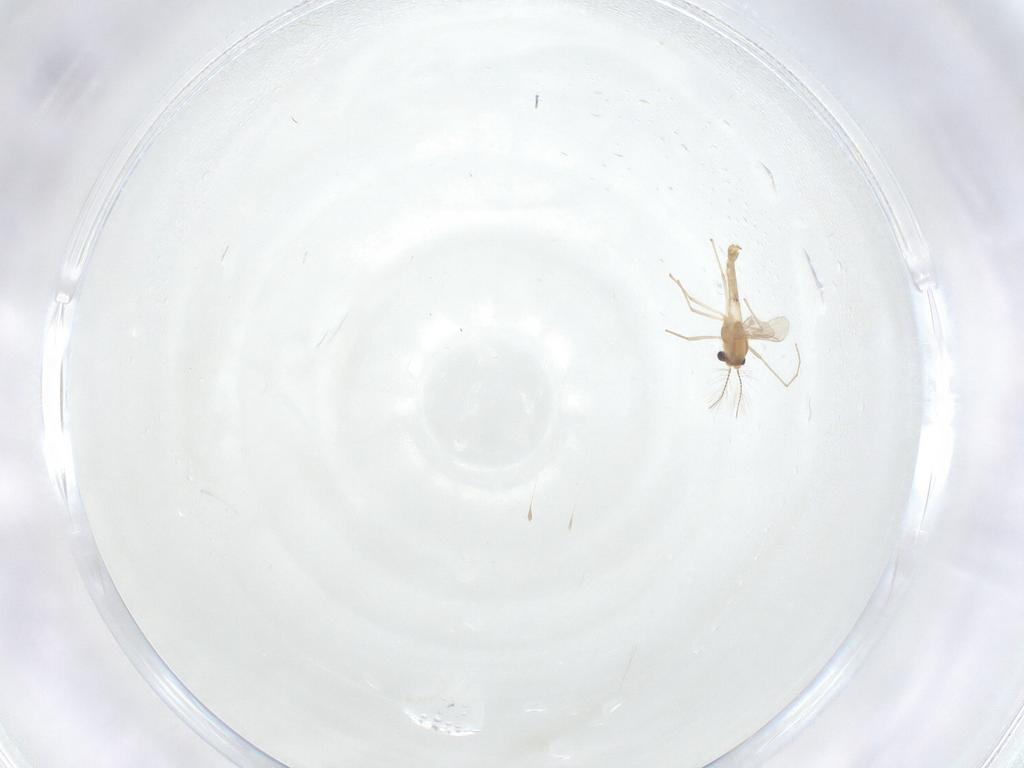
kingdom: Animalia
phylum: Arthropoda
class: Insecta
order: Diptera
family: Chironomidae
